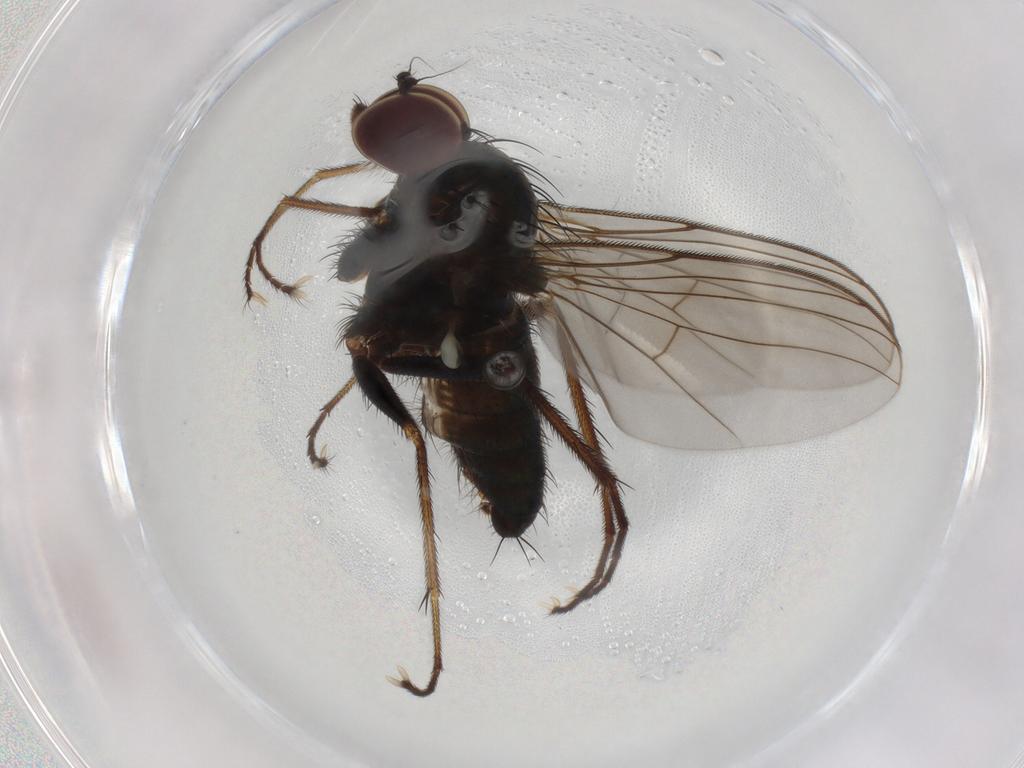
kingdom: Animalia
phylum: Arthropoda
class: Insecta
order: Diptera
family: Dolichopodidae
